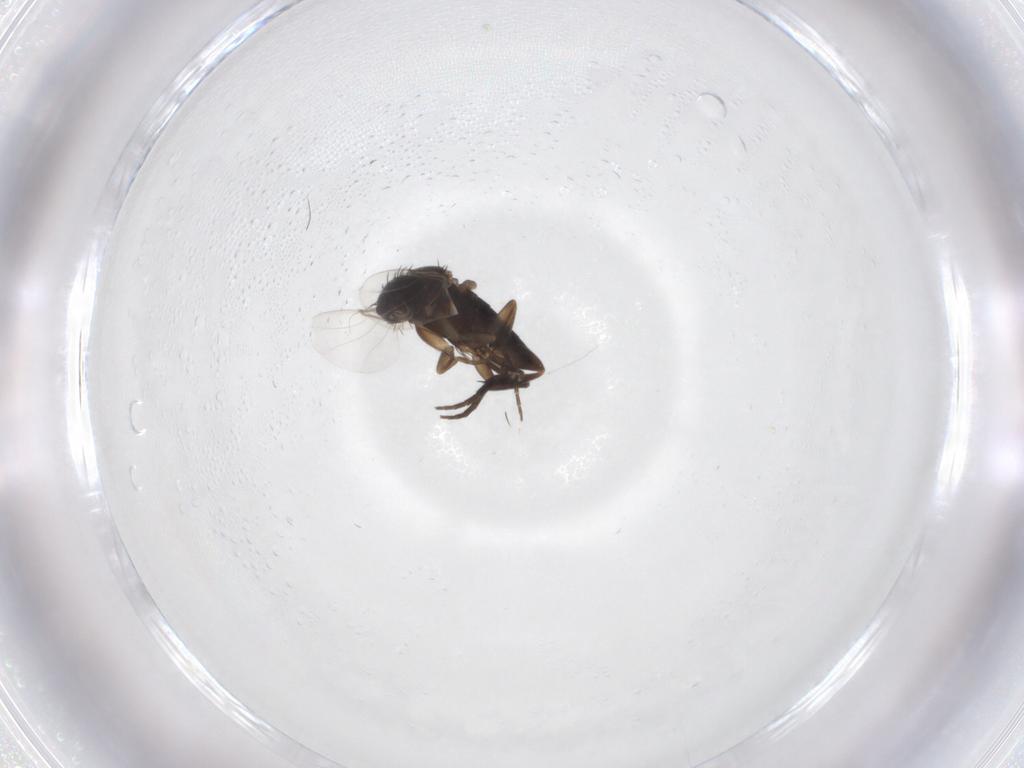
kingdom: Animalia
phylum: Arthropoda
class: Insecta
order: Diptera
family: Phoridae
